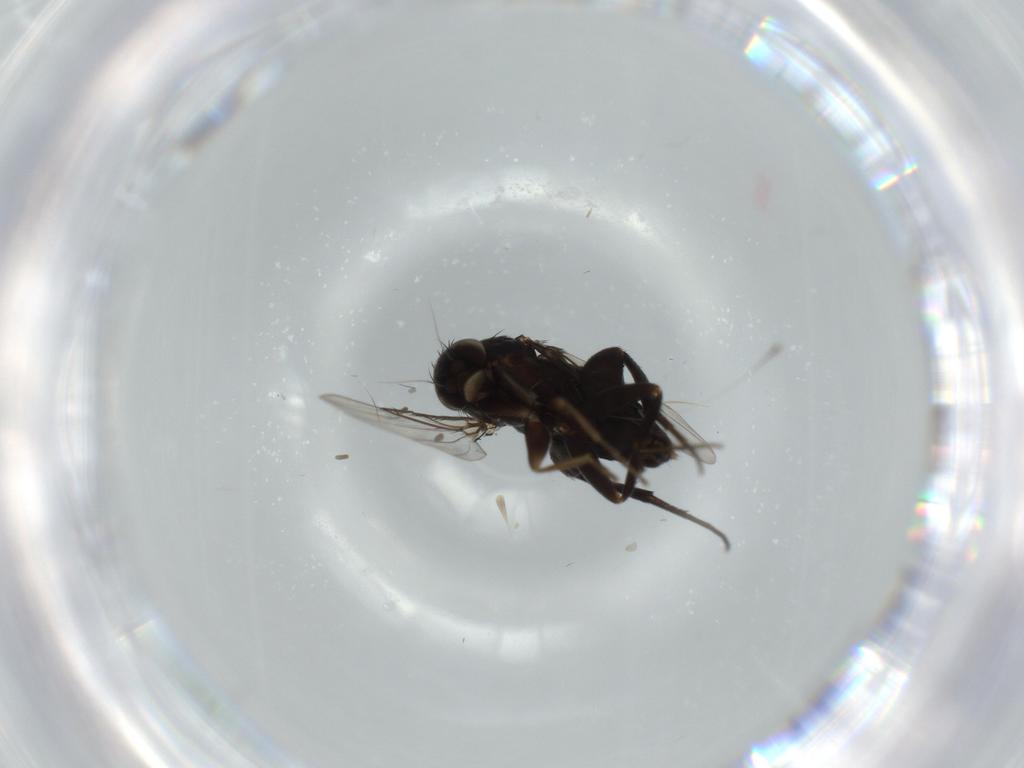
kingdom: Animalia
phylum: Arthropoda
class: Insecta
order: Diptera
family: Phoridae
